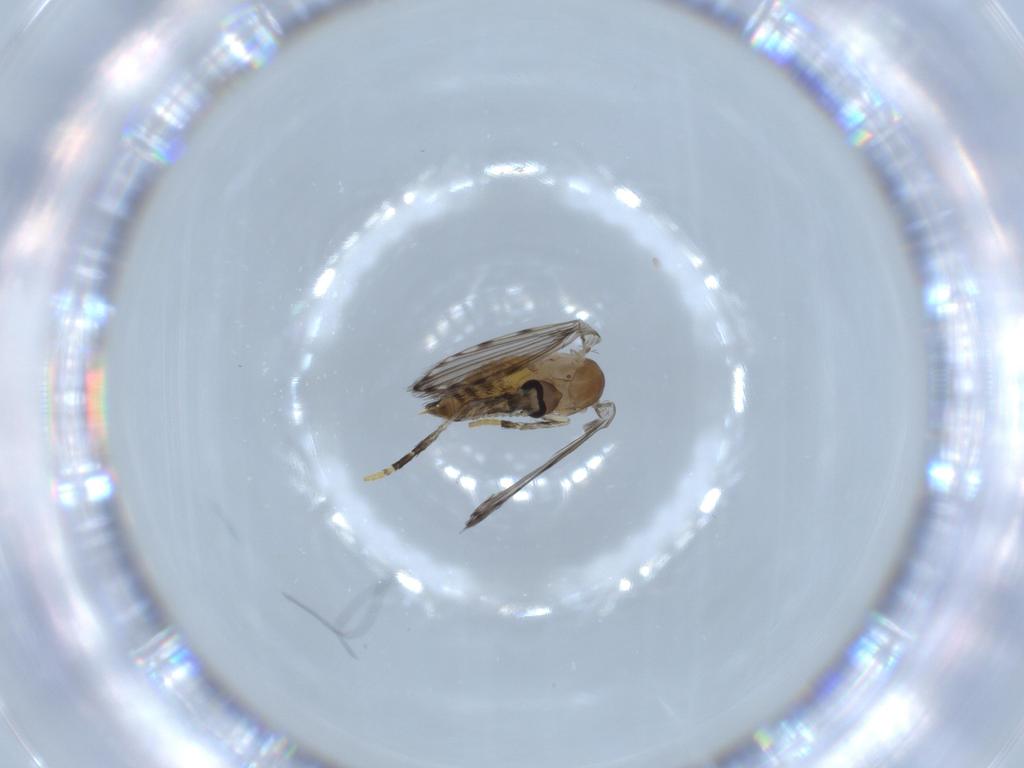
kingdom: Animalia
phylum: Arthropoda
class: Insecta
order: Diptera
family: Psychodidae
